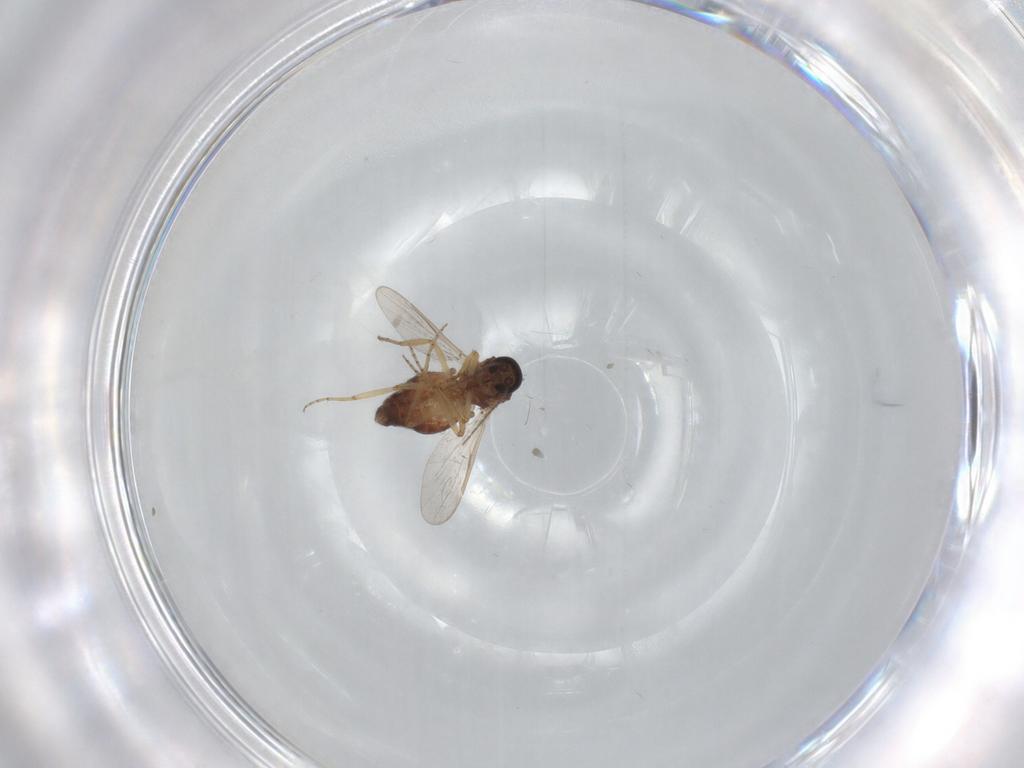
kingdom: Animalia
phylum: Arthropoda
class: Insecta
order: Diptera
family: Ceratopogonidae
